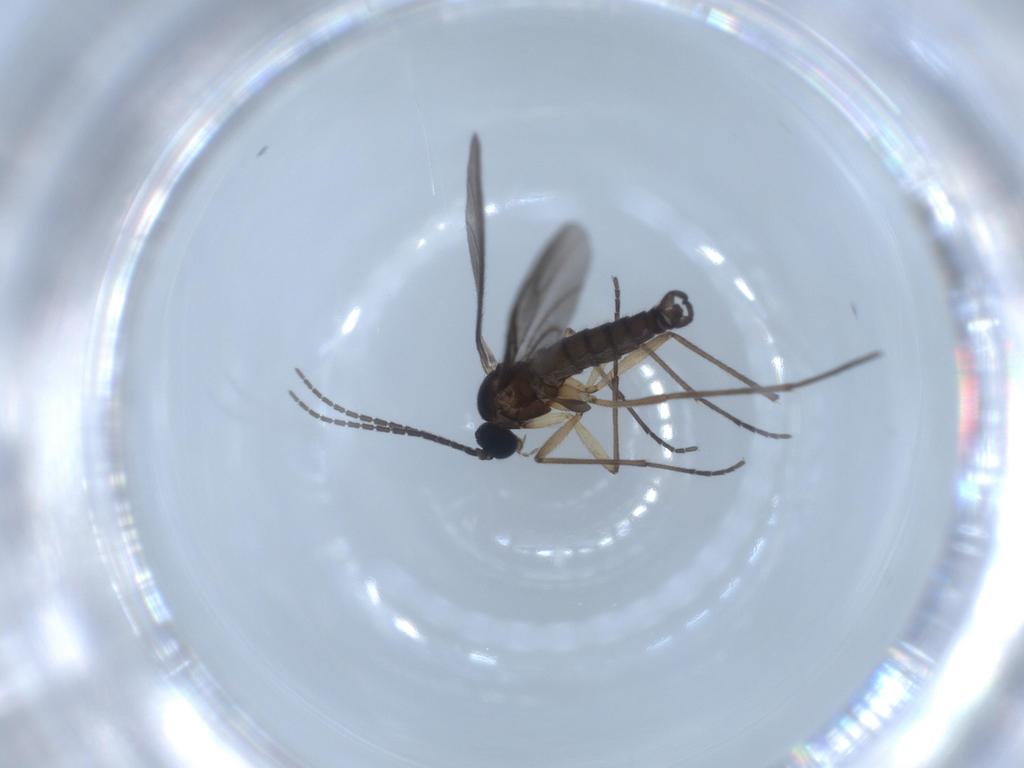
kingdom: Animalia
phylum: Arthropoda
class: Insecta
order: Diptera
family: Sciaridae
